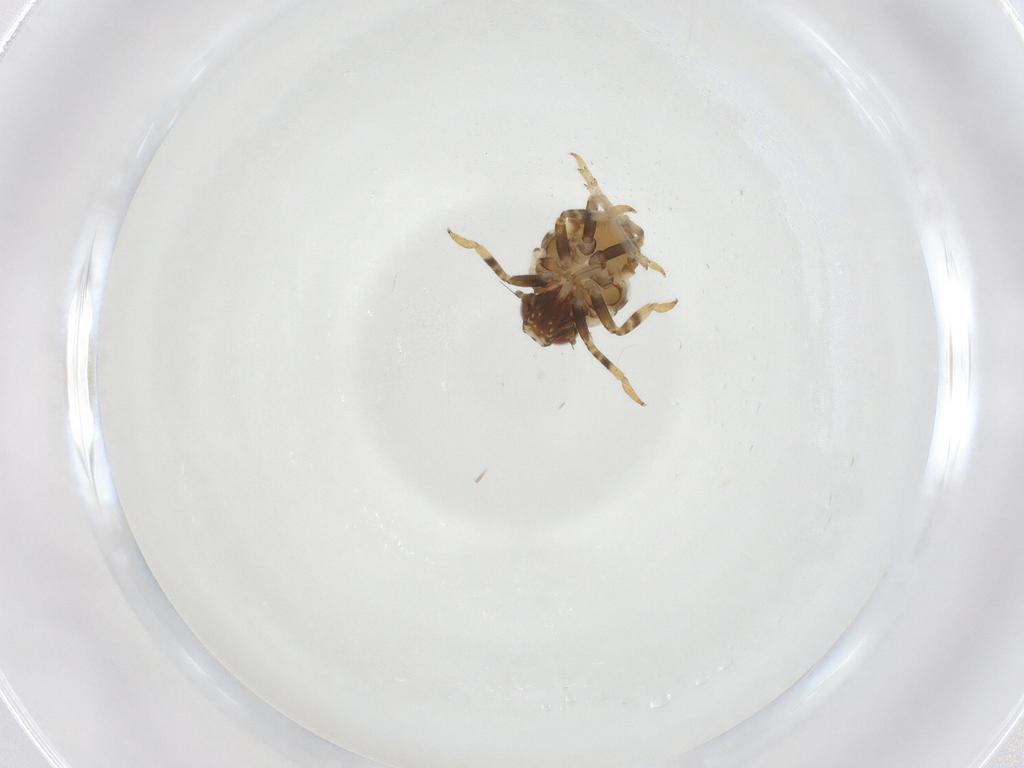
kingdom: Animalia
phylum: Arthropoda
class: Insecta
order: Hemiptera
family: Issidae
